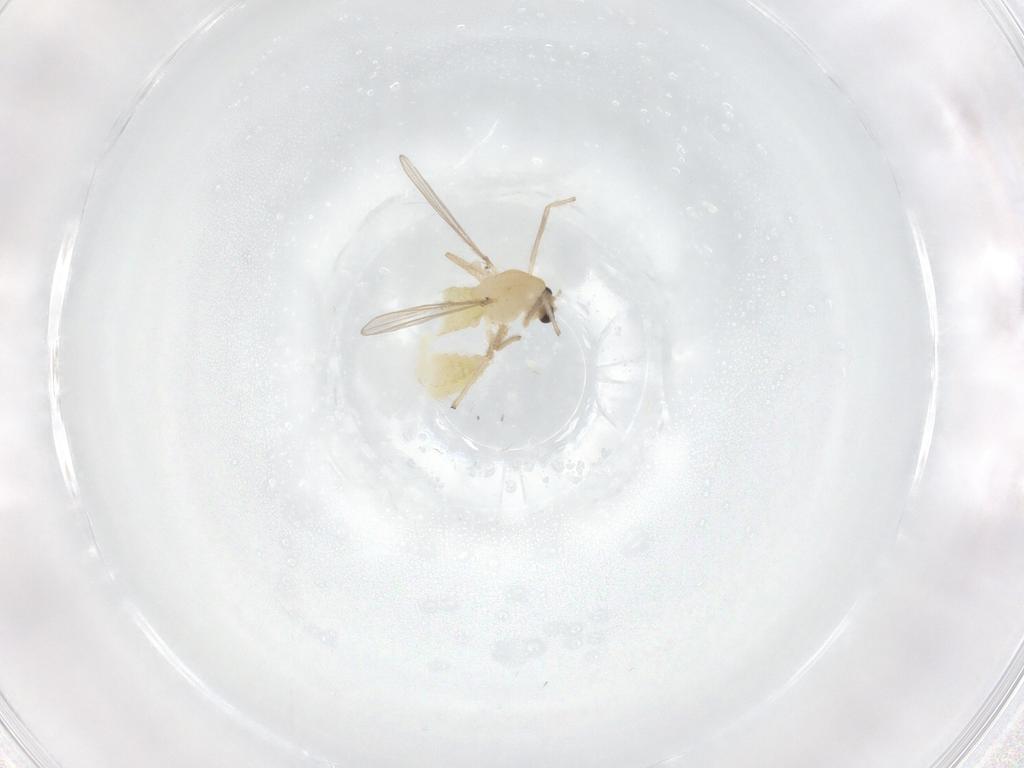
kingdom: Animalia
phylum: Arthropoda
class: Insecta
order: Diptera
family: Chironomidae
